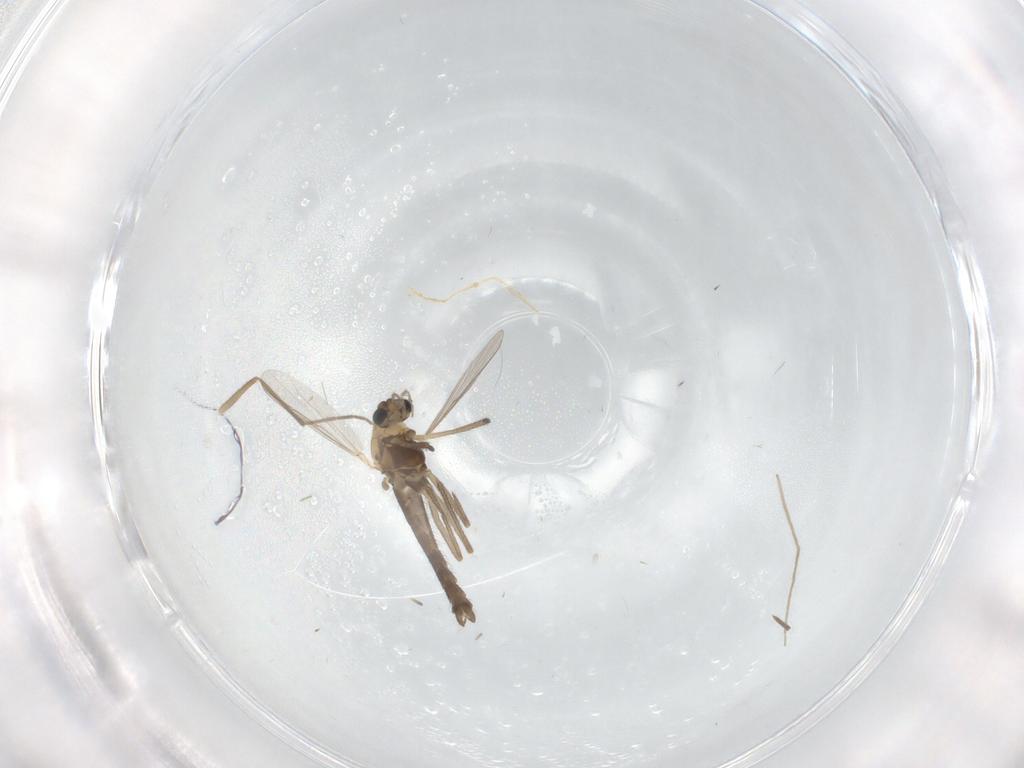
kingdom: Animalia
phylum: Arthropoda
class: Insecta
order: Diptera
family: Chironomidae
